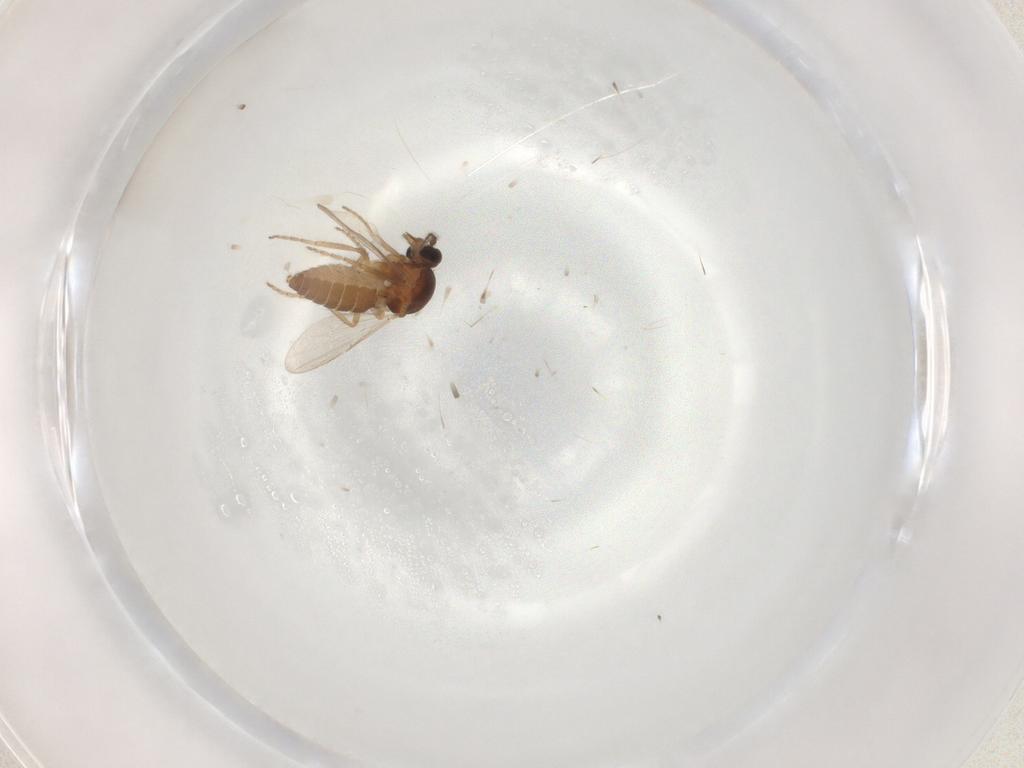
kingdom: Animalia
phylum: Arthropoda
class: Insecta
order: Diptera
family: Ceratopogonidae
